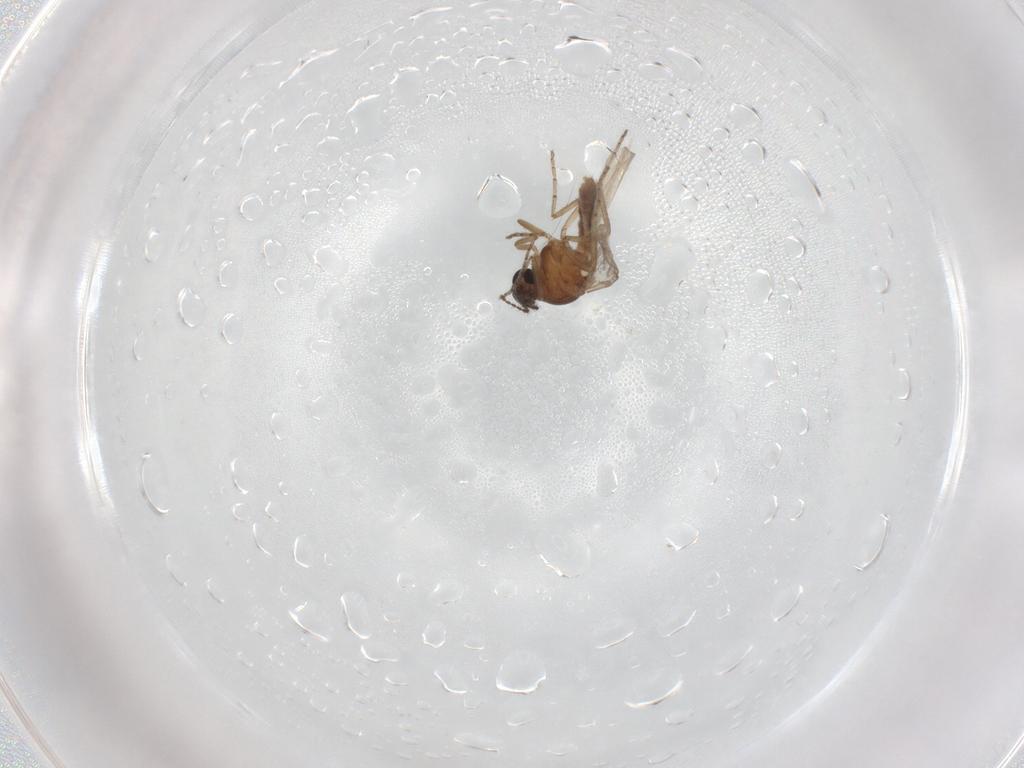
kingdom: Animalia
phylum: Arthropoda
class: Insecta
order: Diptera
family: Ceratopogonidae
